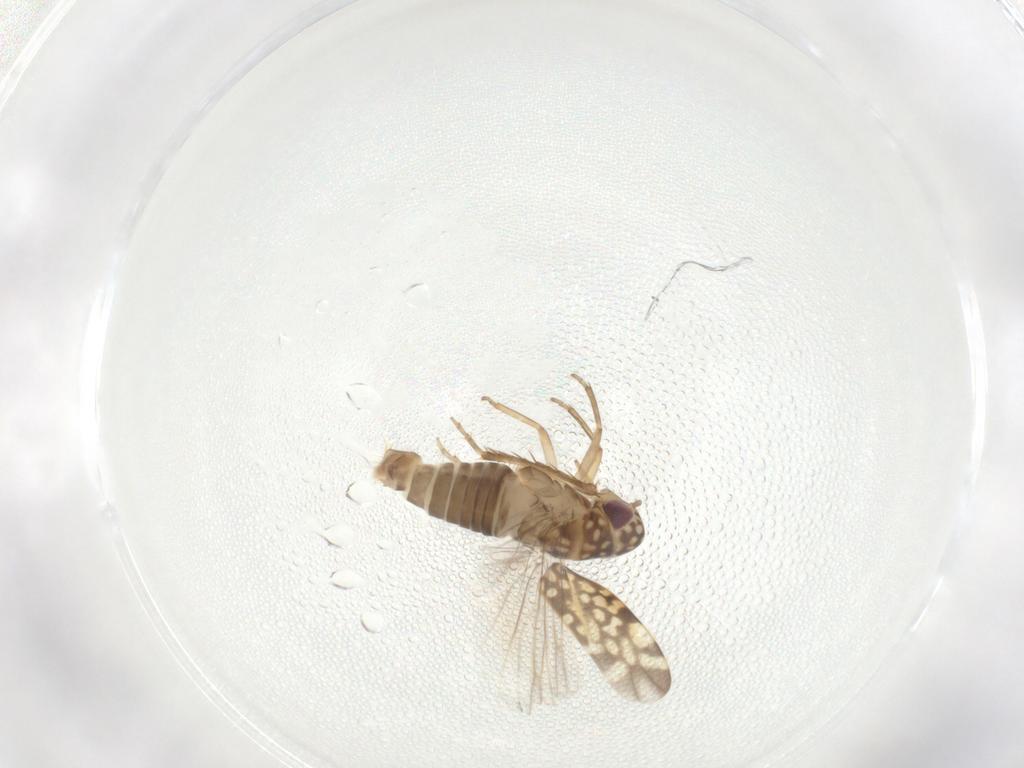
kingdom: Animalia
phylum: Arthropoda
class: Insecta
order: Hemiptera
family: Cicadellidae
